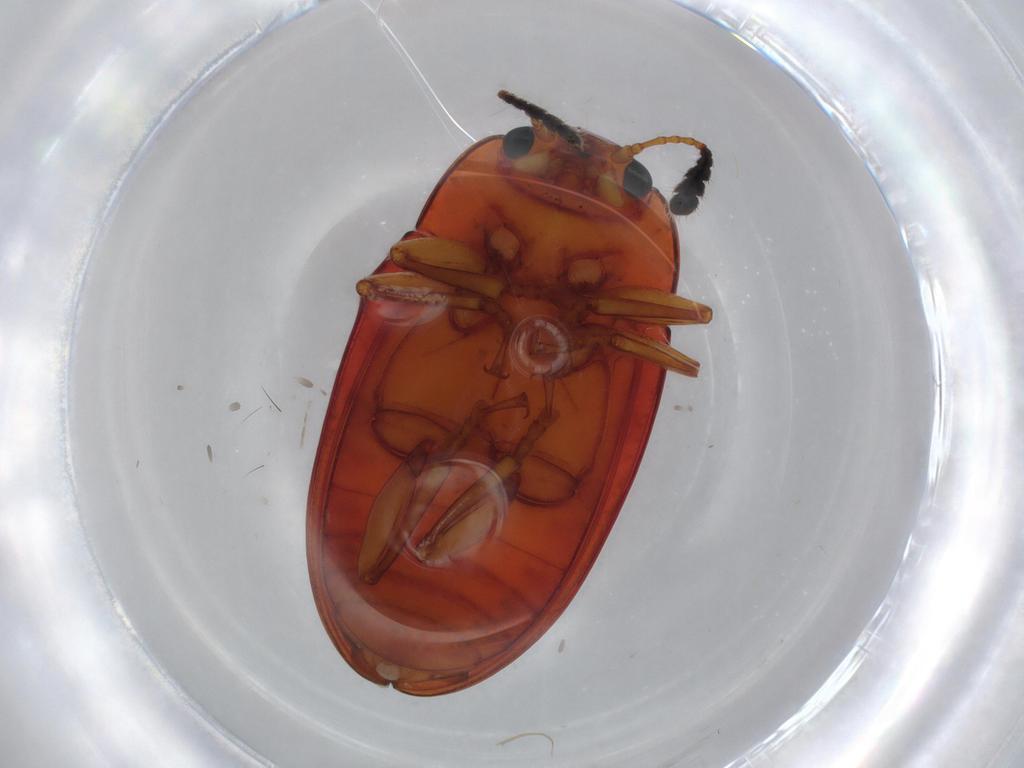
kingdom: Animalia
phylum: Arthropoda
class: Insecta
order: Coleoptera
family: Erotylidae
